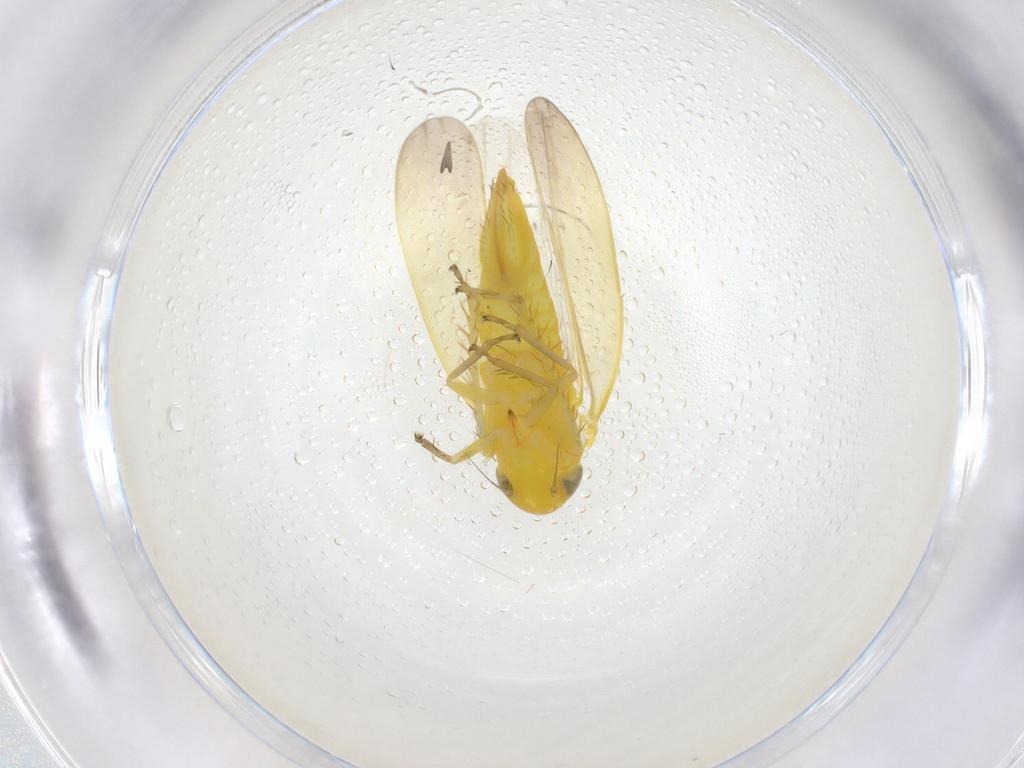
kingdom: Animalia
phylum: Arthropoda
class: Insecta
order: Hemiptera
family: Cicadellidae
